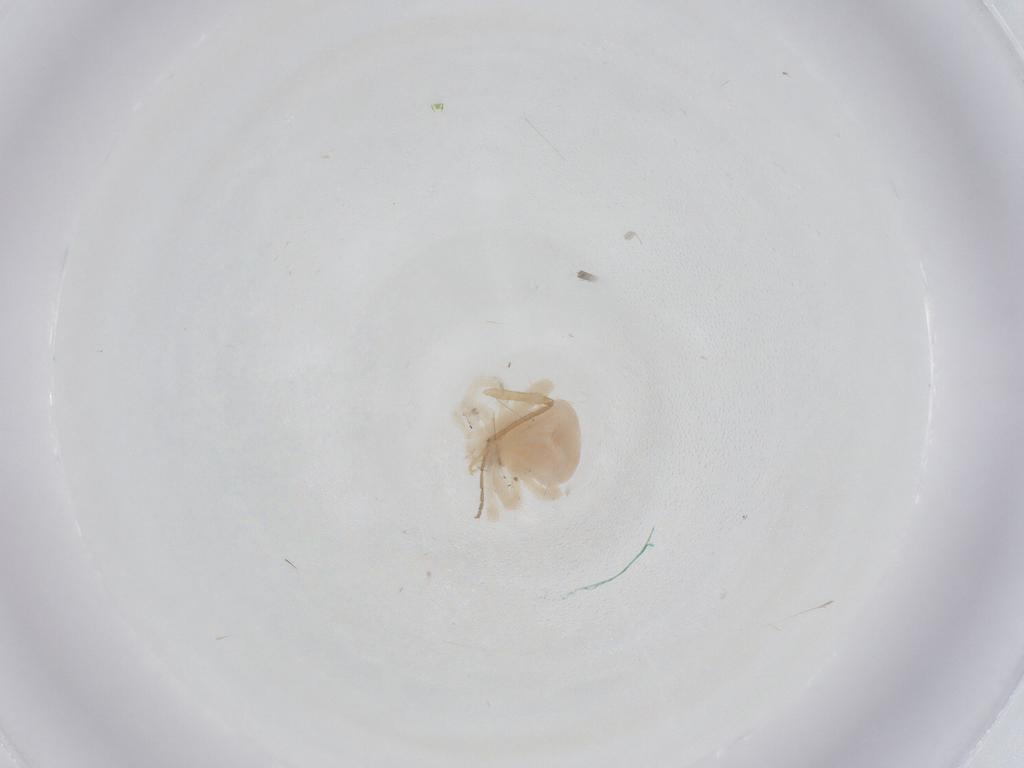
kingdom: Animalia
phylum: Arthropoda
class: Arachnida
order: Trombidiformes
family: Anystidae
